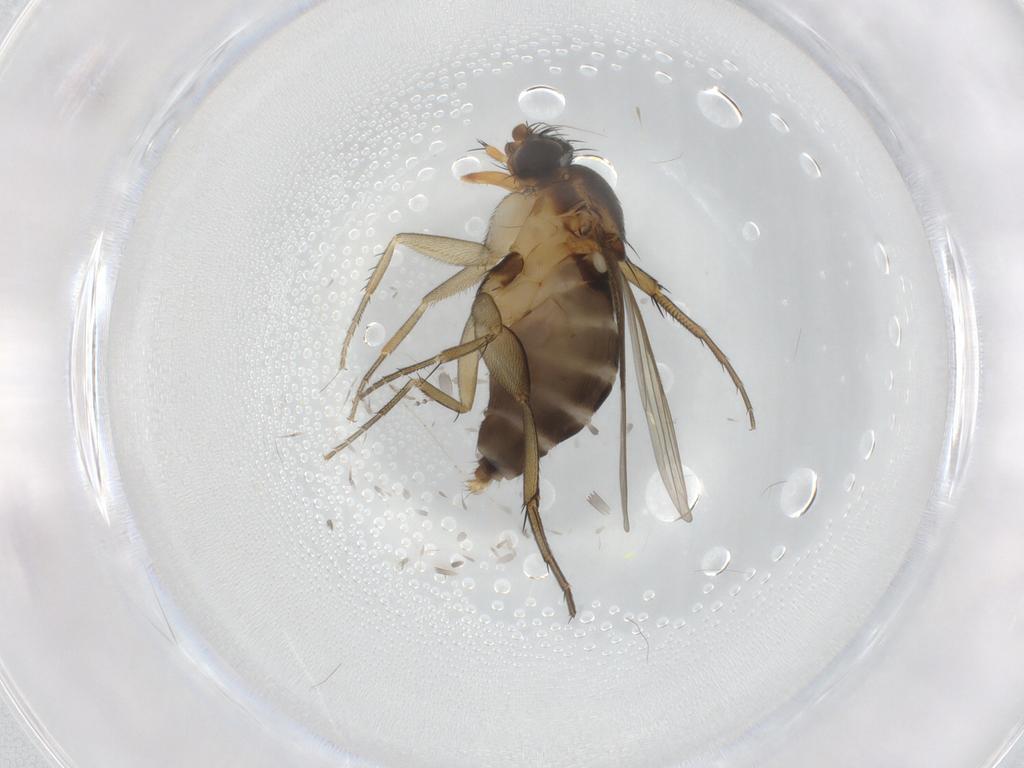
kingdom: Animalia
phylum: Arthropoda
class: Insecta
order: Diptera
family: Phoridae
